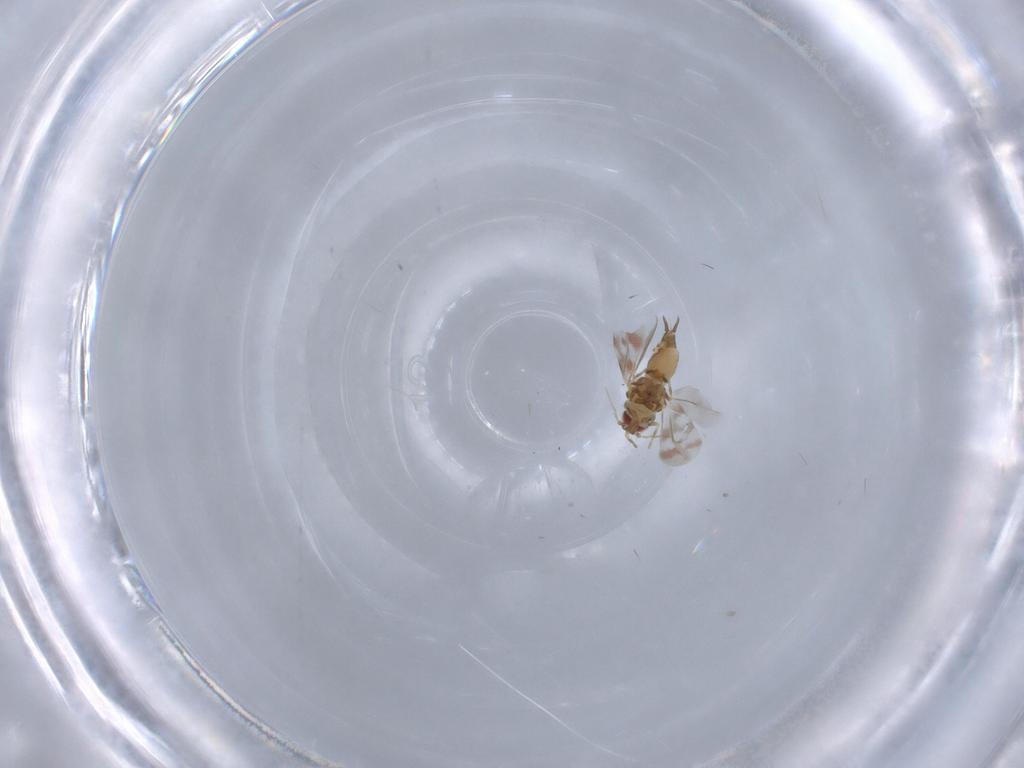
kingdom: Animalia
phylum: Arthropoda
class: Insecta
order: Hemiptera
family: Aleyrodidae
